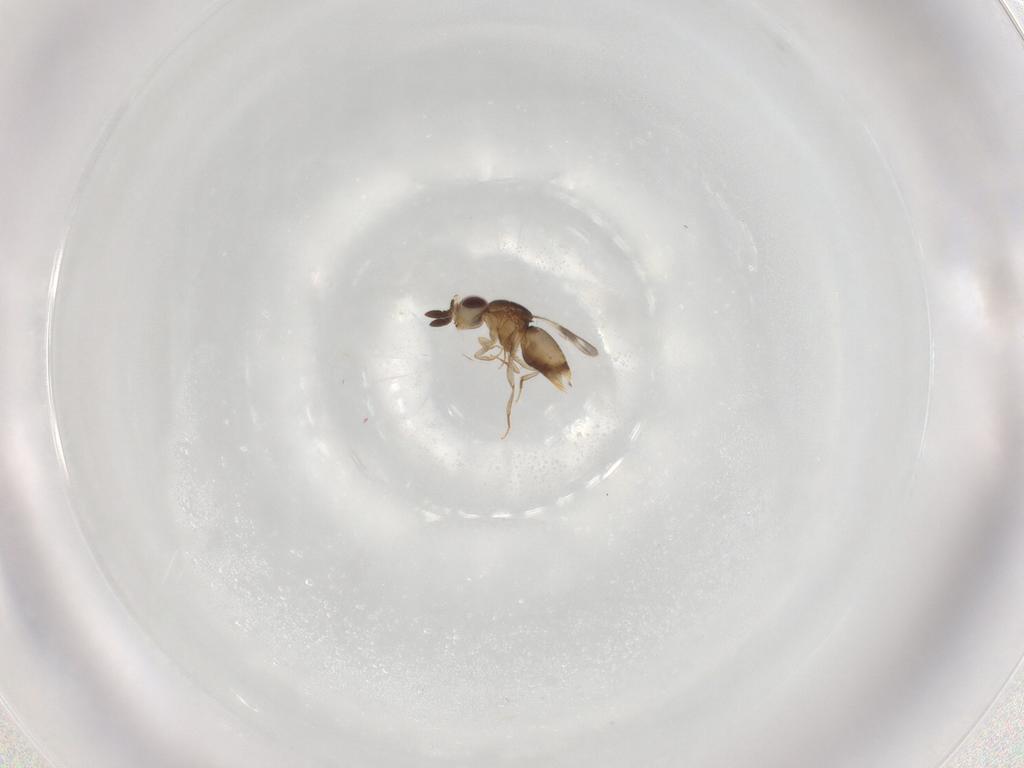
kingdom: Animalia
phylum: Arthropoda
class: Insecta
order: Hymenoptera
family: Ceraphronidae
